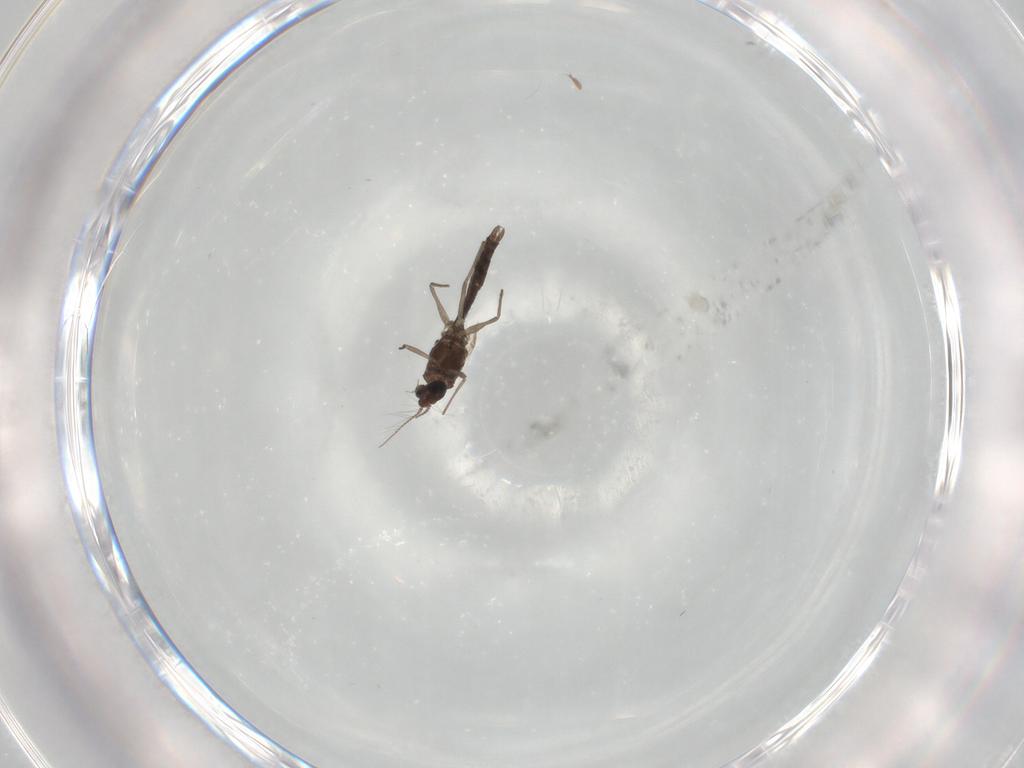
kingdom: Animalia
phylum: Arthropoda
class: Insecta
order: Diptera
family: Chironomidae
